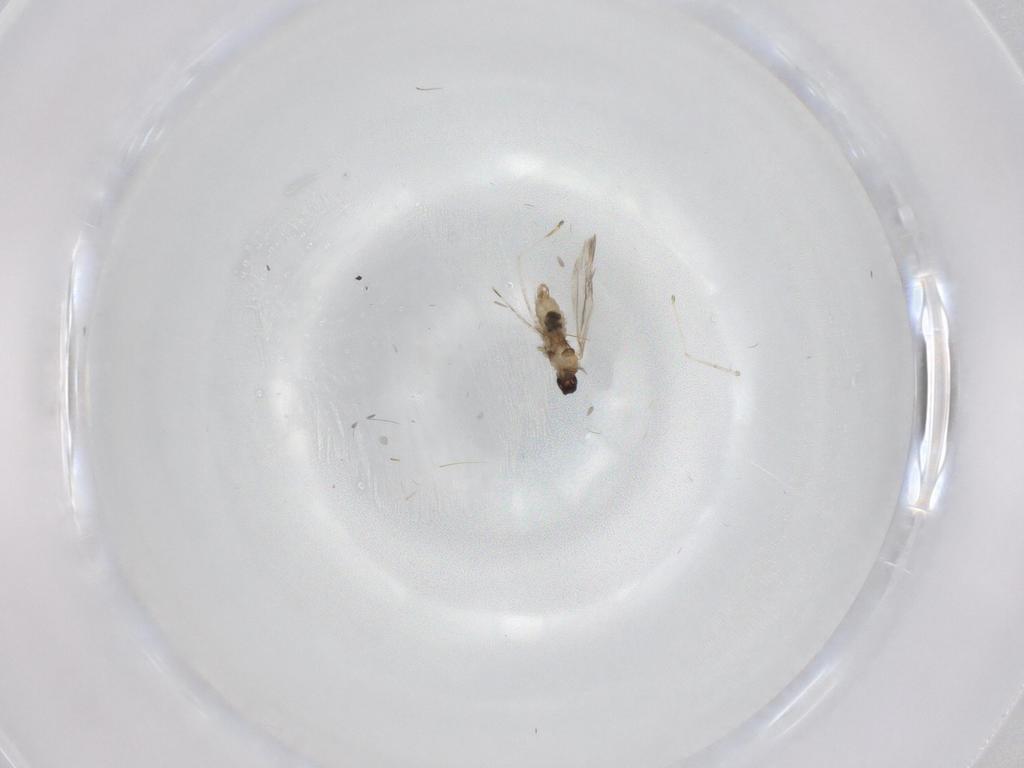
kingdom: Animalia
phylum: Arthropoda
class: Insecta
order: Diptera
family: Cecidomyiidae
